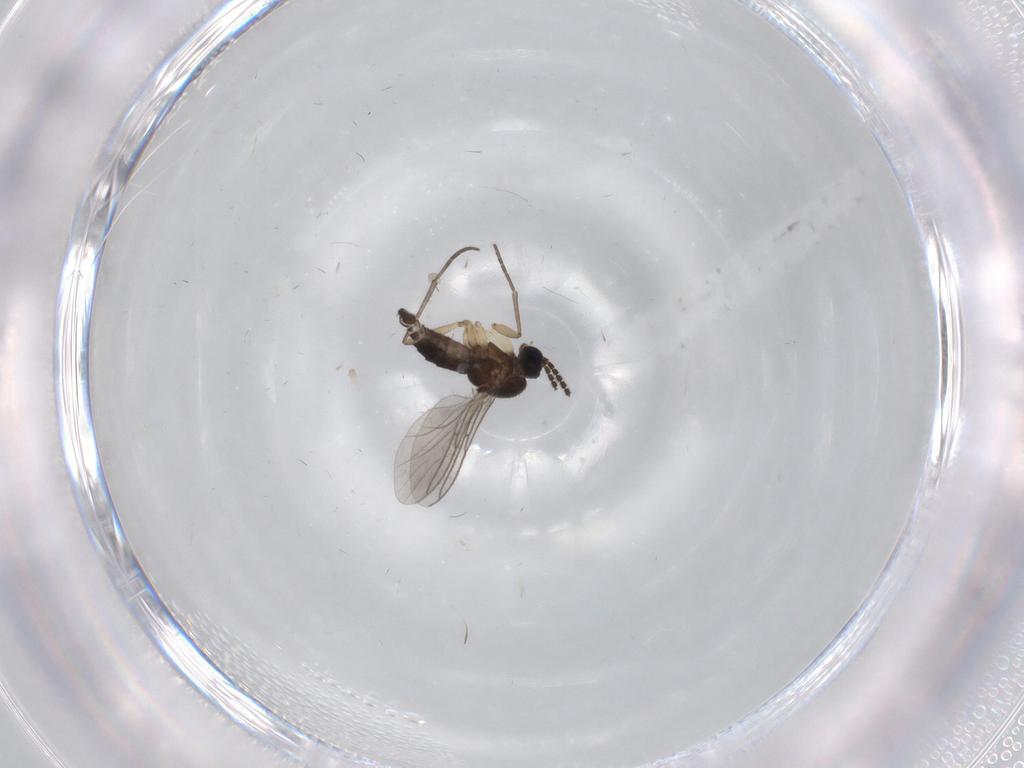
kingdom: Animalia
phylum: Arthropoda
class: Insecta
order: Diptera
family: Sciaridae
